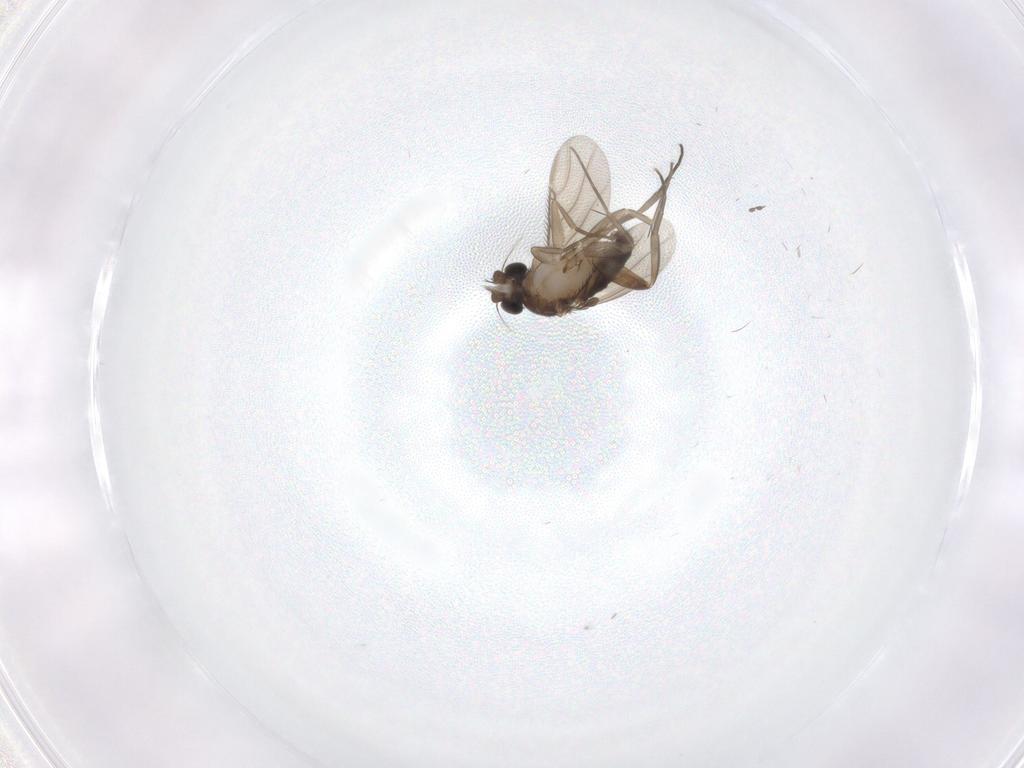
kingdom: Animalia
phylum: Arthropoda
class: Insecta
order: Diptera
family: Phoridae
